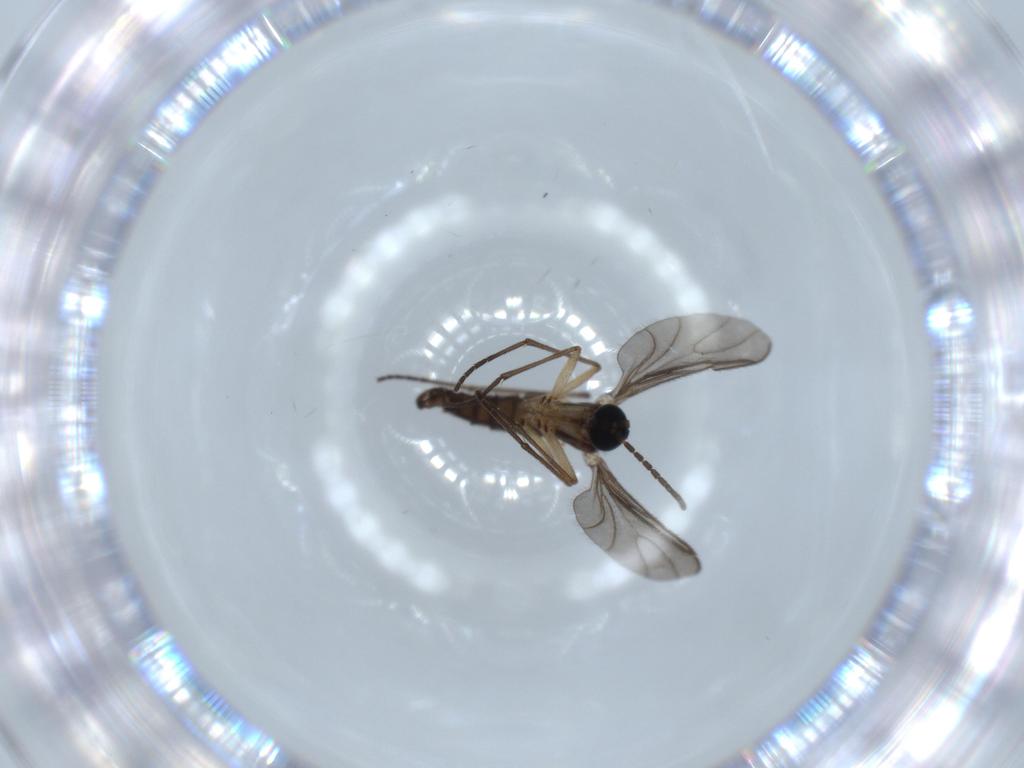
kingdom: Animalia
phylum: Arthropoda
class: Insecta
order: Diptera
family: Sciaridae
